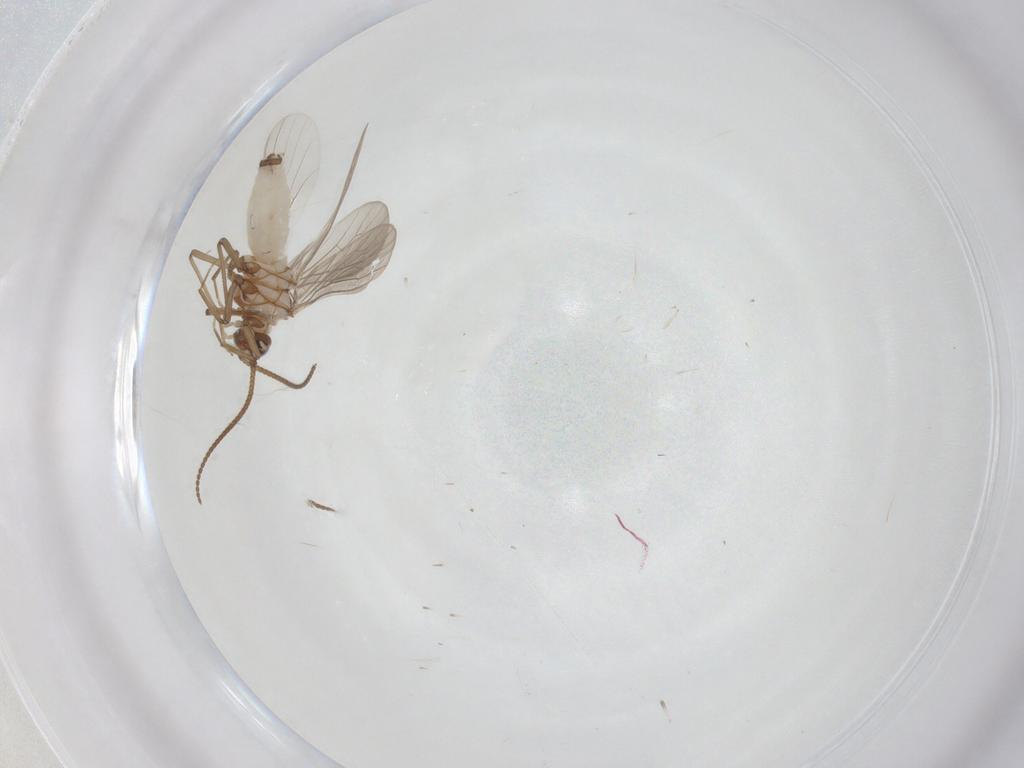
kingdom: Animalia
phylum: Arthropoda
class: Insecta
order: Neuroptera
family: Coniopterygidae
